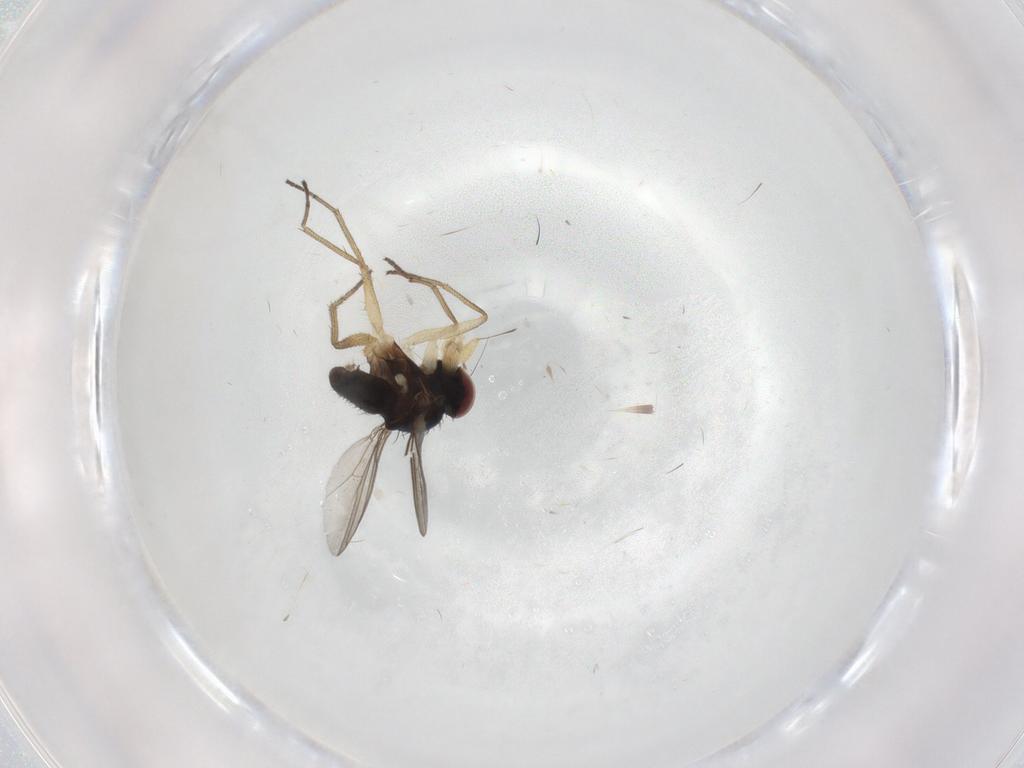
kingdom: Animalia
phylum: Arthropoda
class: Insecta
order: Diptera
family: Dolichopodidae
